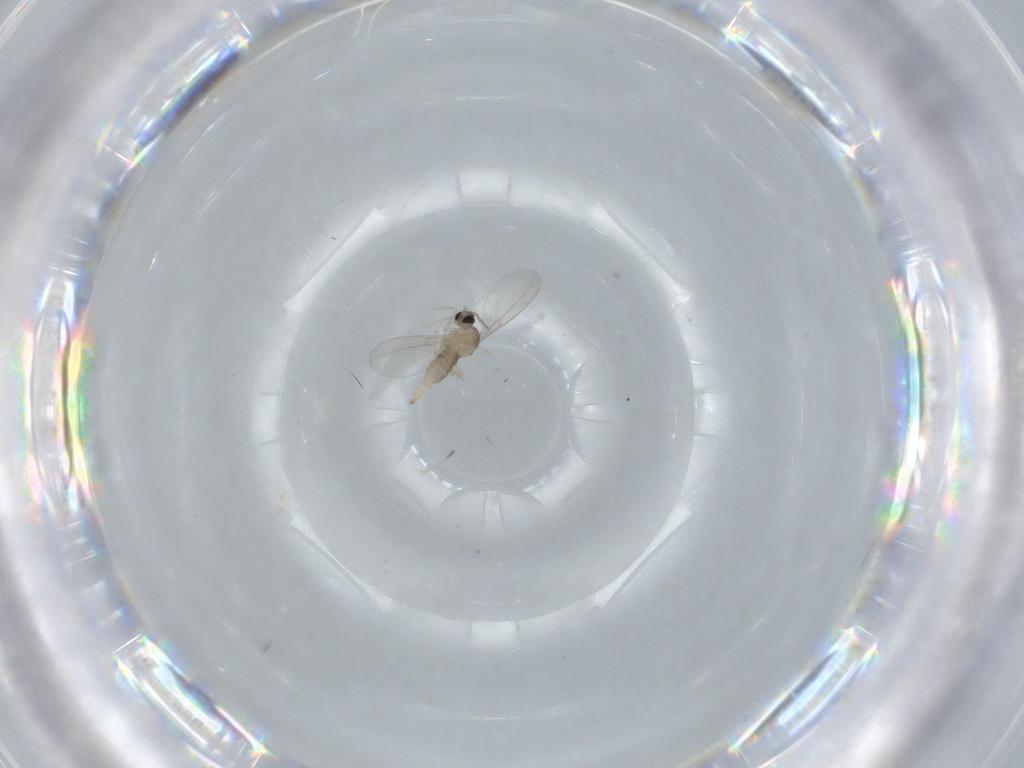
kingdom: Animalia
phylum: Arthropoda
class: Insecta
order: Diptera
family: Cecidomyiidae
